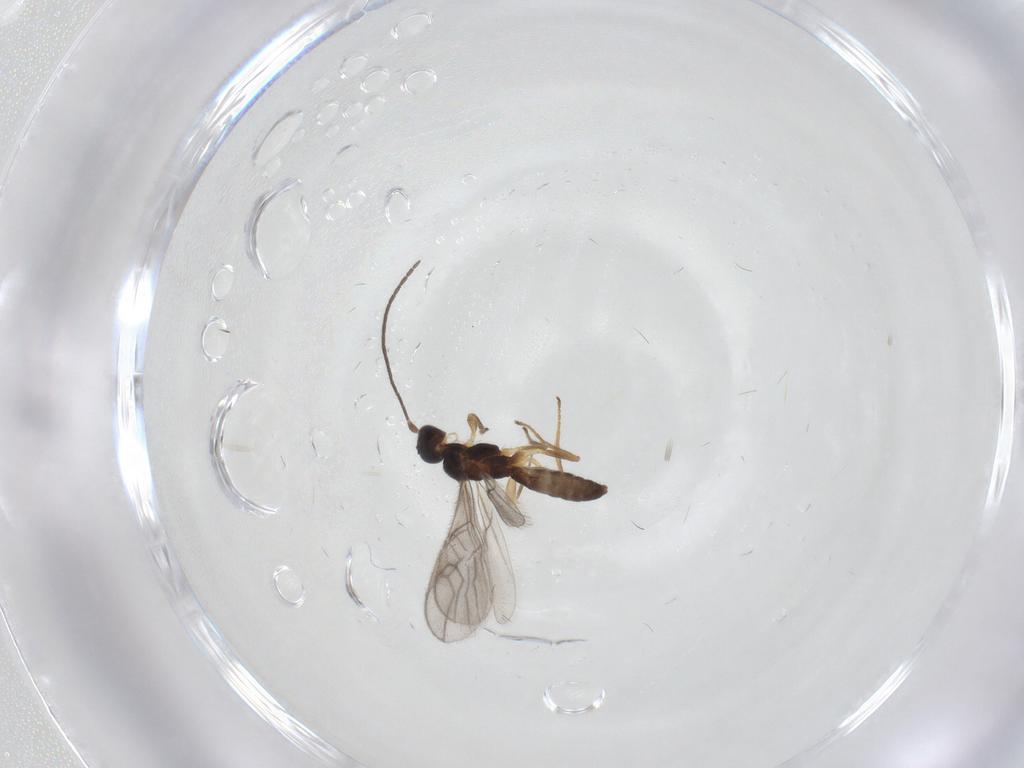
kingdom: Animalia
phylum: Arthropoda
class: Insecta
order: Hymenoptera
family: Braconidae
